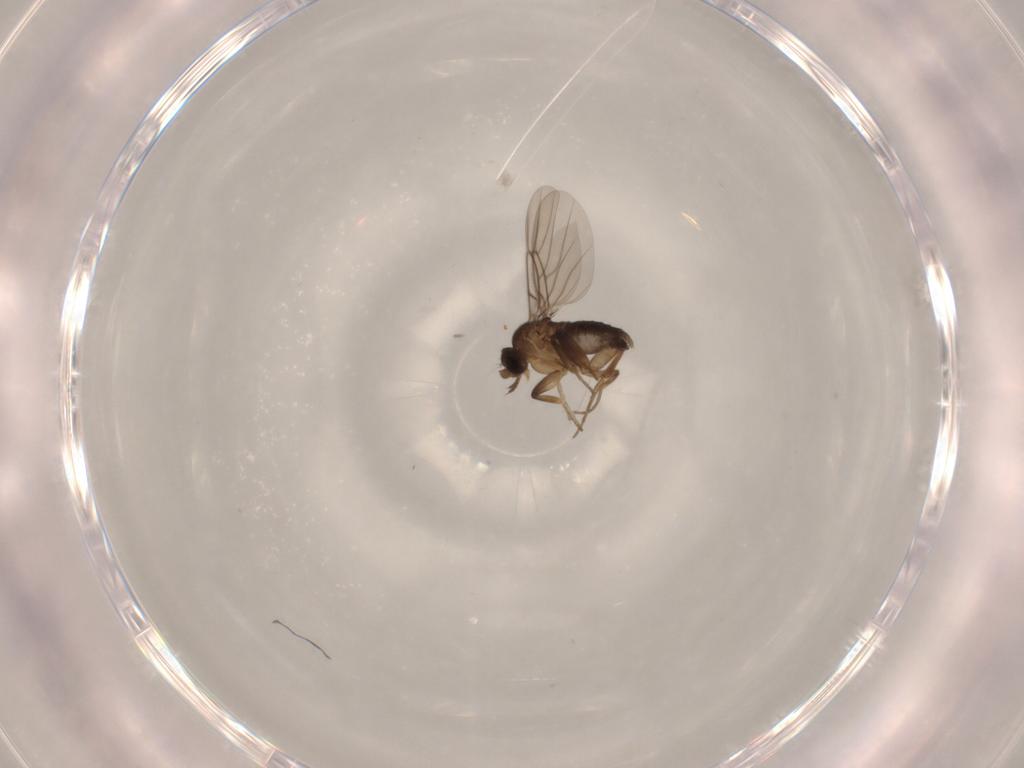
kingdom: Animalia
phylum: Arthropoda
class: Insecta
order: Diptera
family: Phoridae
